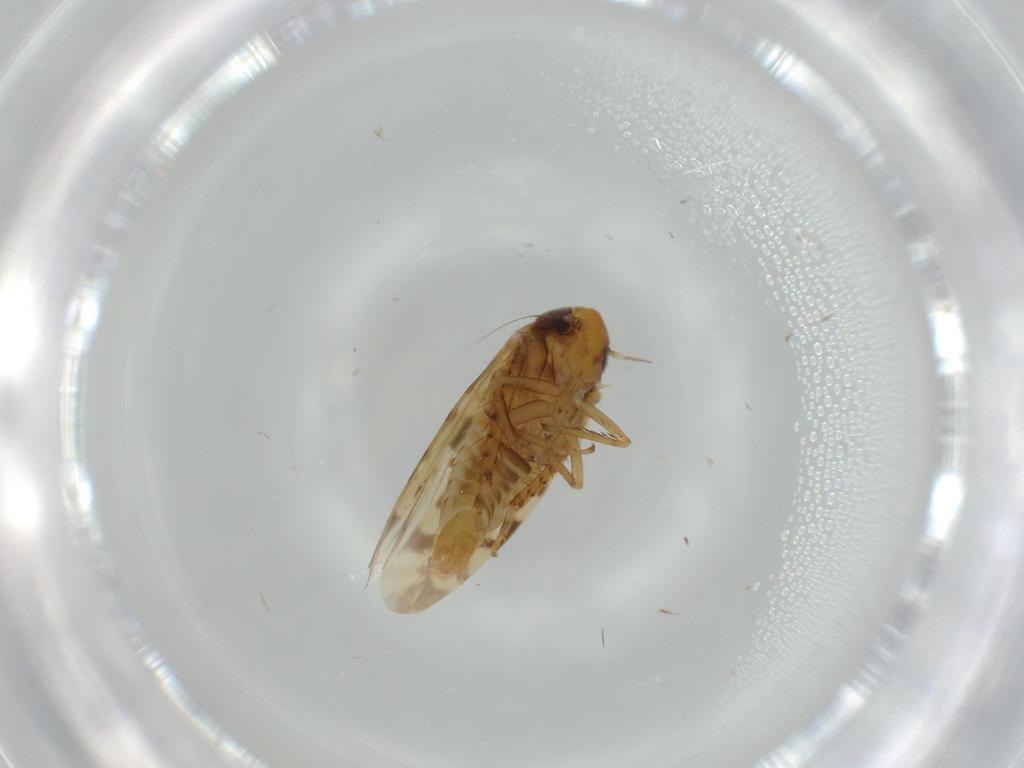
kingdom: Animalia
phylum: Arthropoda
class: Insecta
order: Hemiptera
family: Cicadellidae
